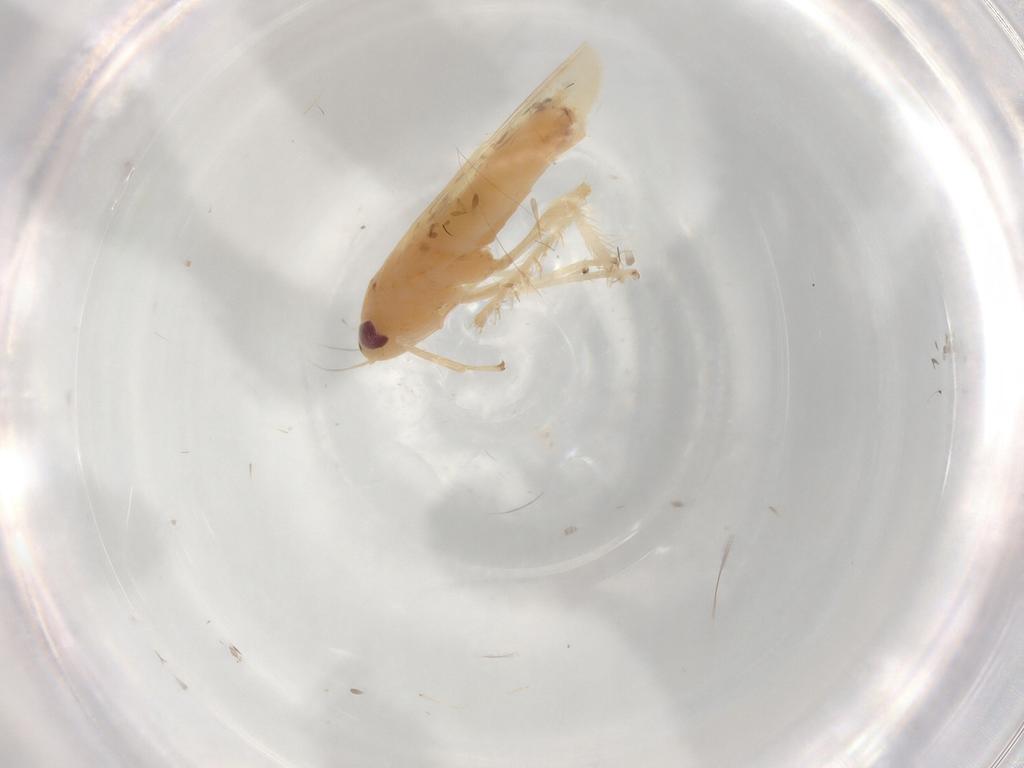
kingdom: Animalia
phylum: Arthropoda
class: Insecta
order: Hemiptera
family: Cicadellidae
